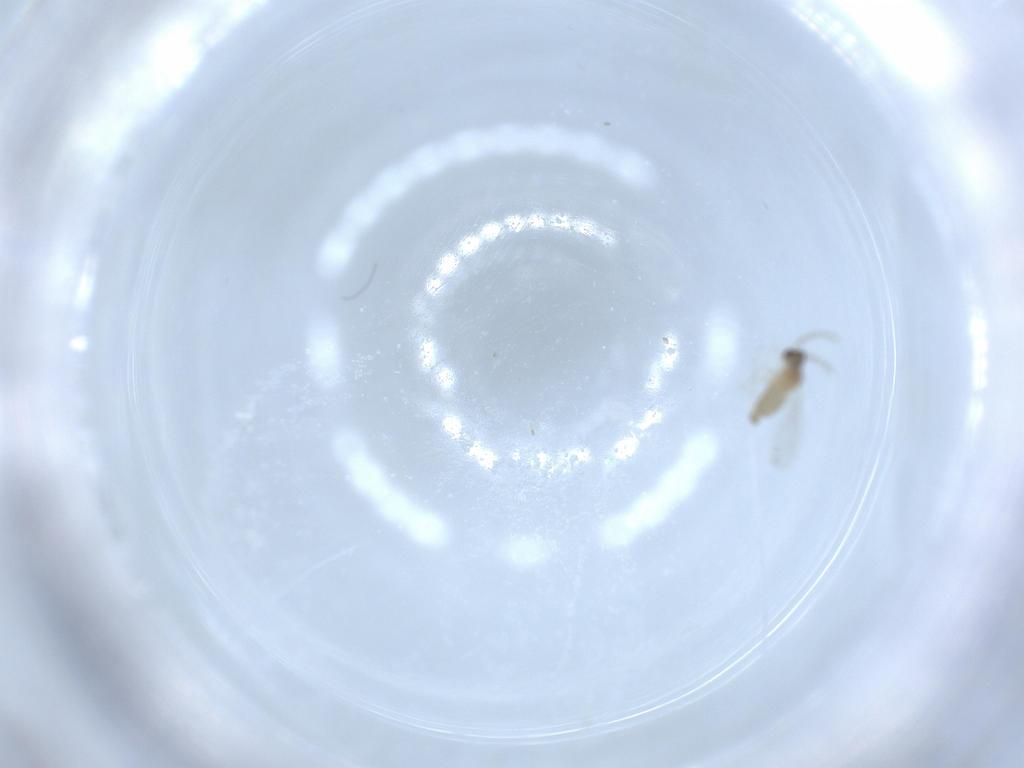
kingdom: Animalia
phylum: Arthropoda
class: Insecta
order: Diptera
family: Cecidomyiidae
